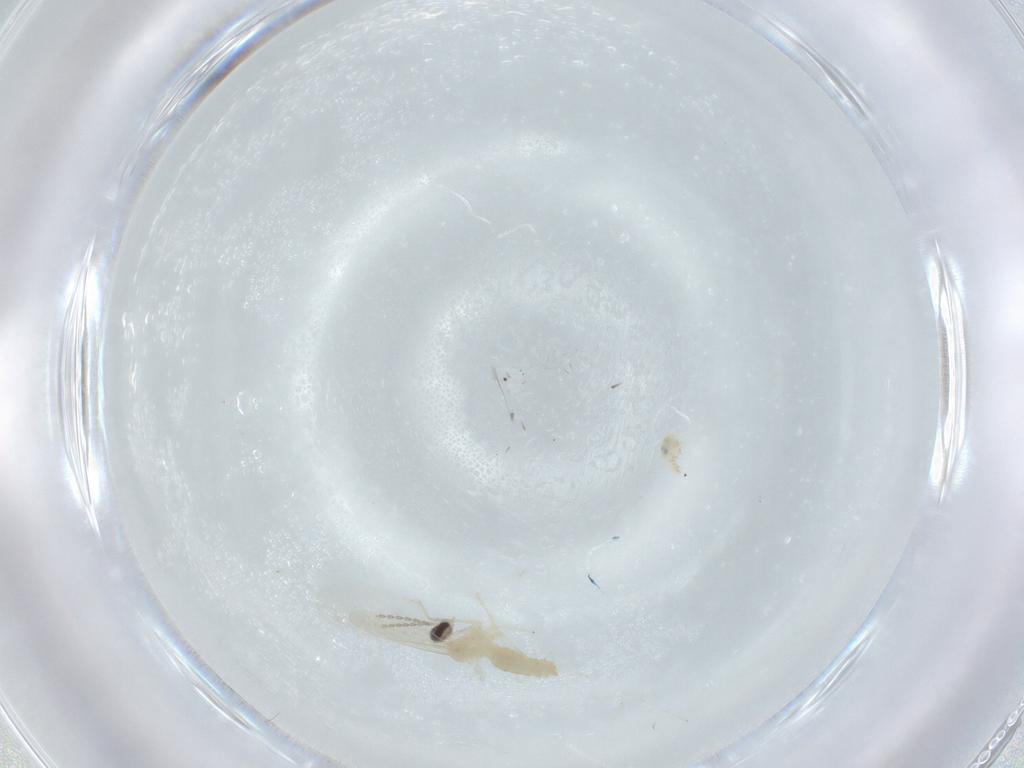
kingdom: Animalia
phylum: Arthropoda
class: Insecta
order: Diptera
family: Cecidomyiidae
